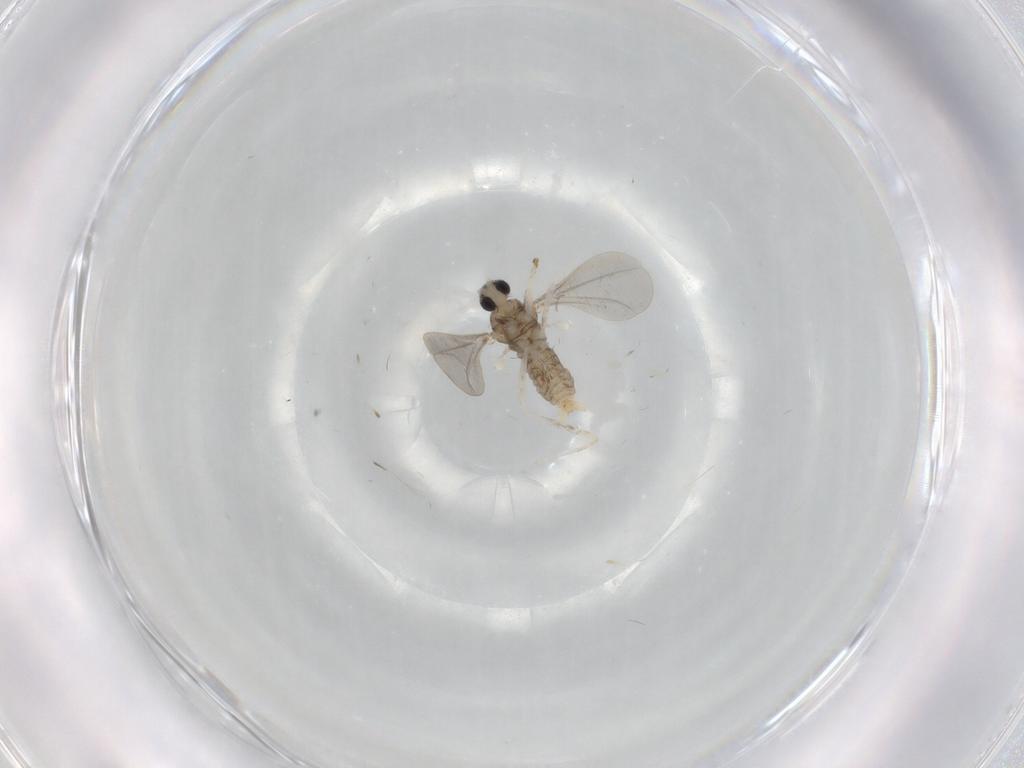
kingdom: Animalia
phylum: Arthropoda
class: Insecta
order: Diptera
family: Cecidomyiidae
